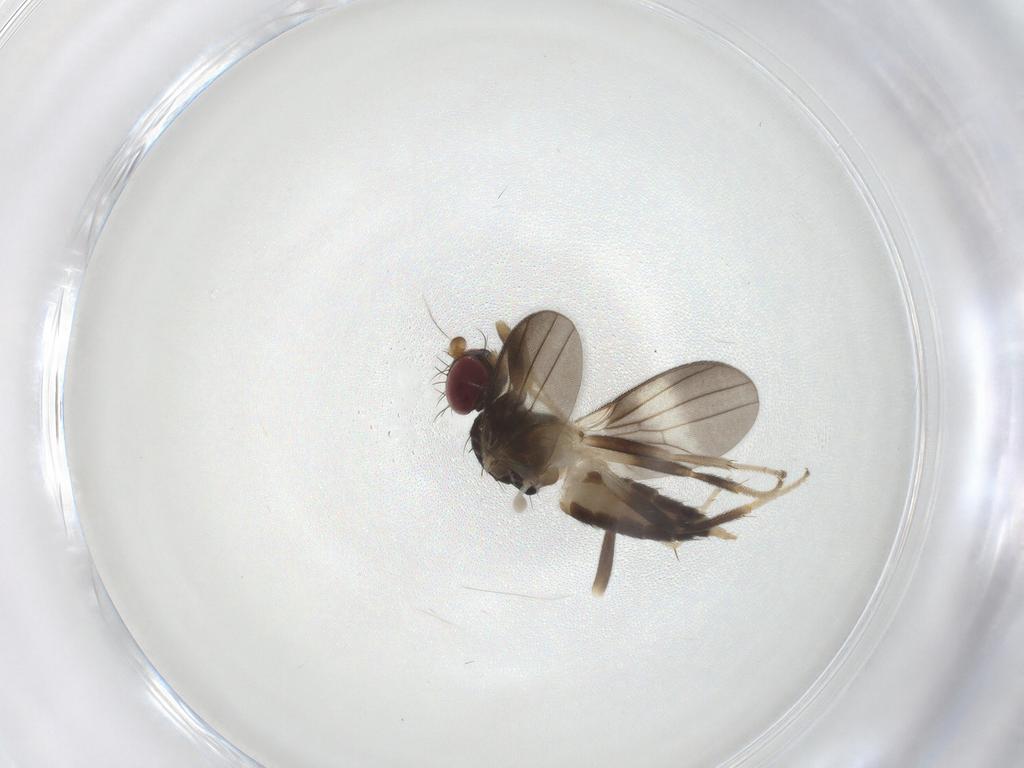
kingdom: Animalia
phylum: Arthropoda
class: Insecta
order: Diptera
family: Clusiidae
